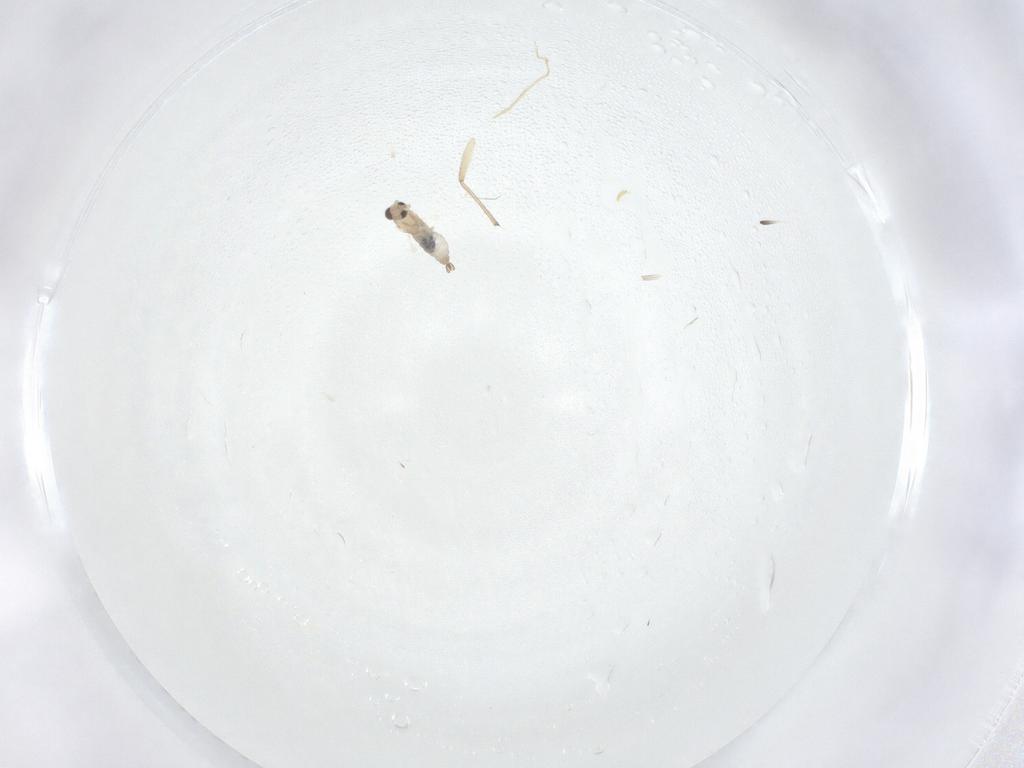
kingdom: Animalia
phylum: Arthropoda
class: Insecta
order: Diptera
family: Cecidomyiidae
